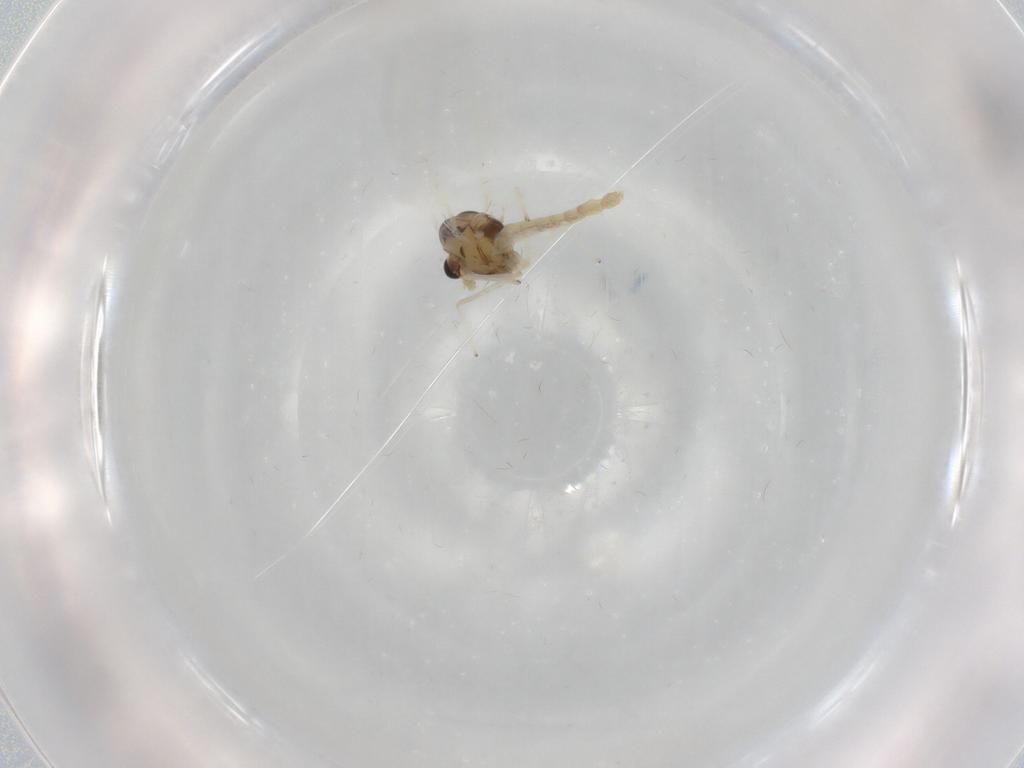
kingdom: Animalia
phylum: Arthropoda
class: Insecta
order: Diptera
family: Chironomidae
